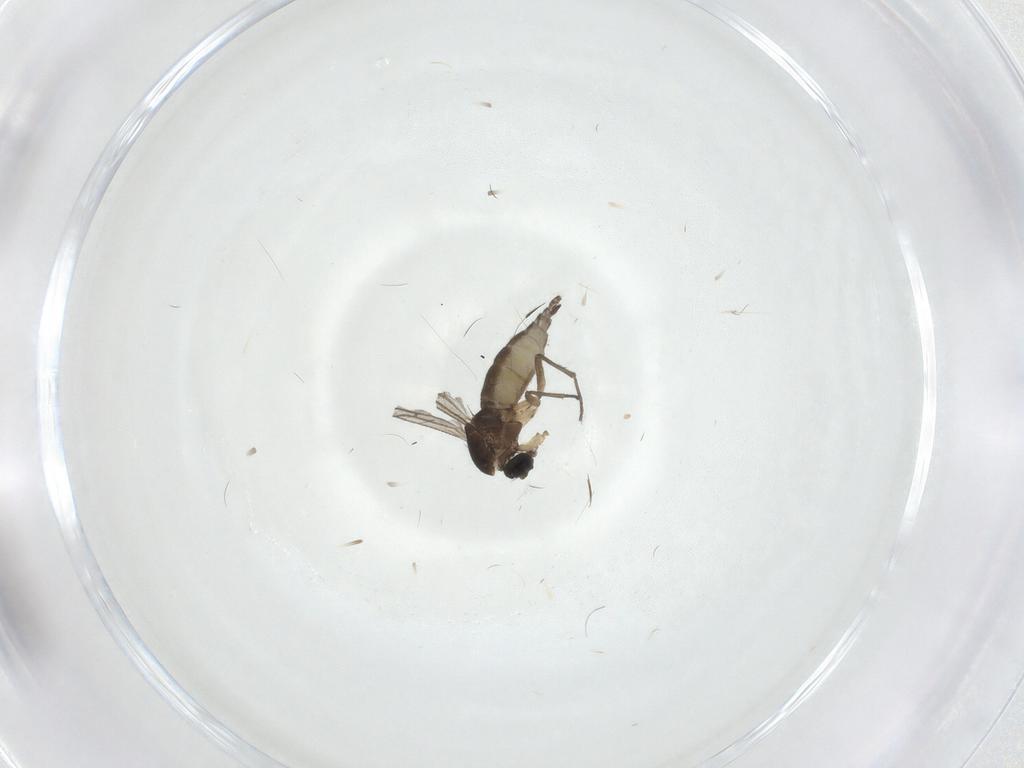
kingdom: Animalia
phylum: Arthropoda
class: Insecta
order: Diptera
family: Sciaridae
